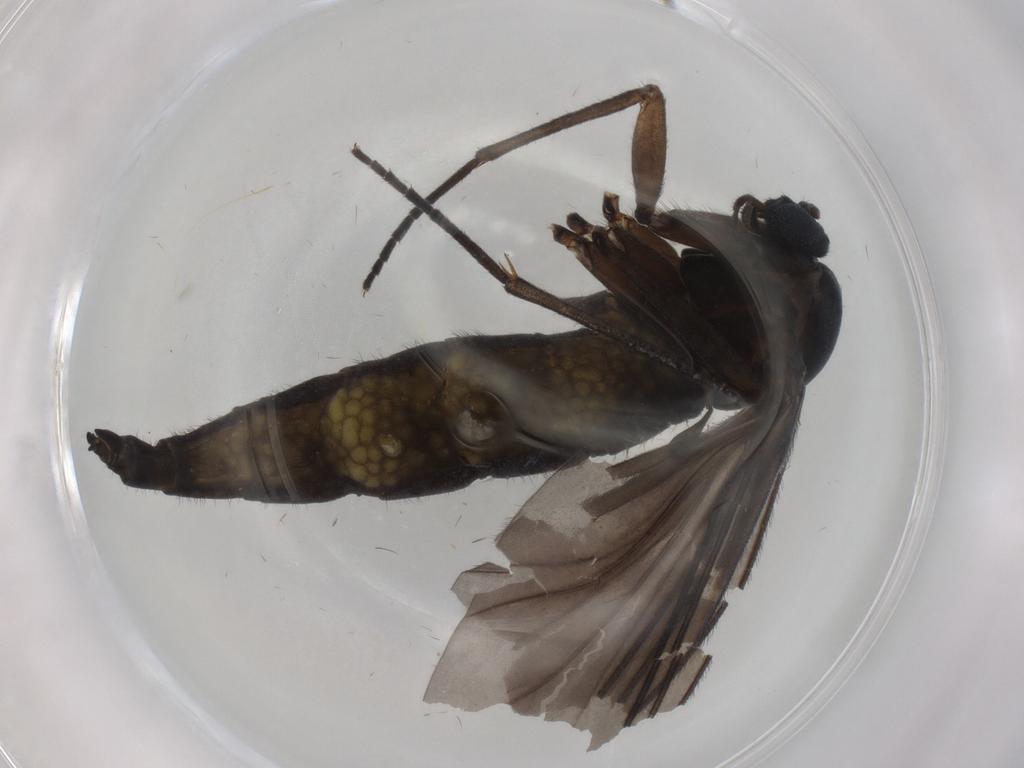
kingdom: Animalia
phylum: Arthropoda
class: Insecta
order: Diptera
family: Sciaridae
